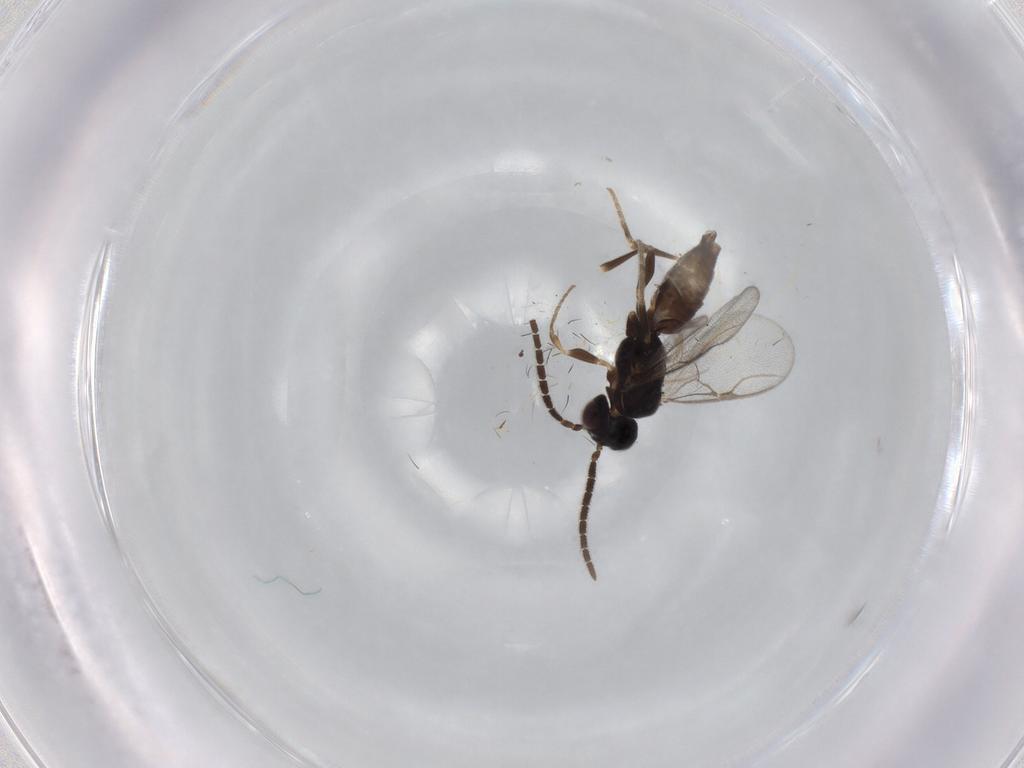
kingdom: Animalia
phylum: Arthropoda
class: Insecta
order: Hymenoptera
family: Dryinidae
